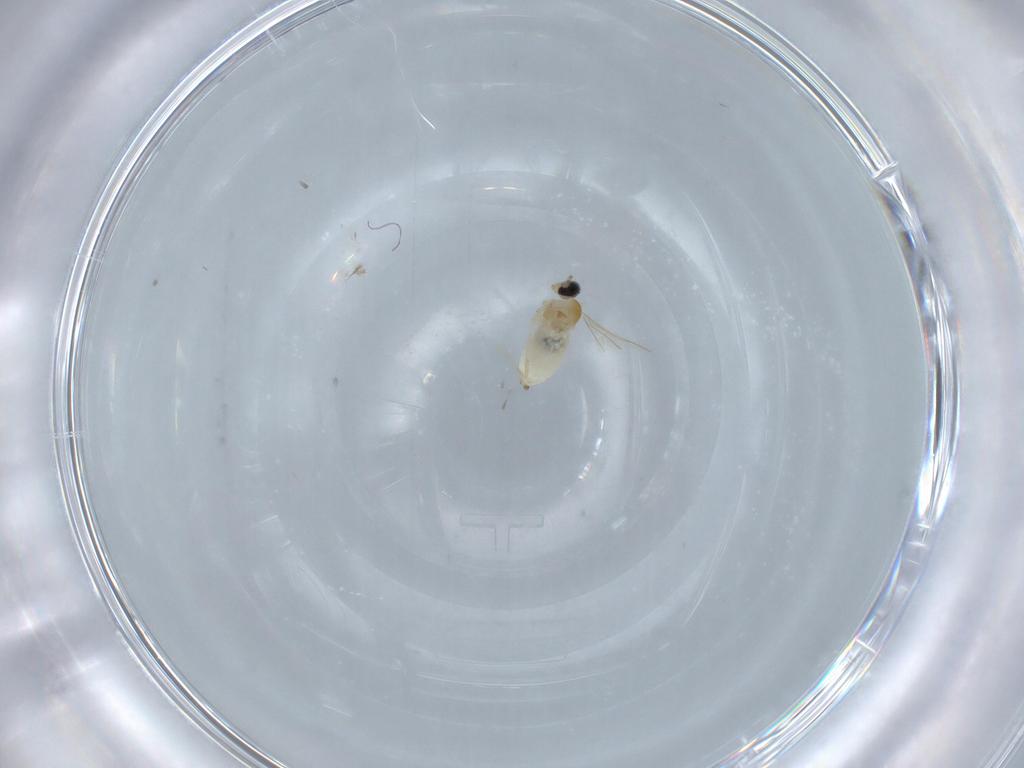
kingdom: Animalia
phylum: Arthropoda
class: Insecta
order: Diptera
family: Cecidomyiidae
